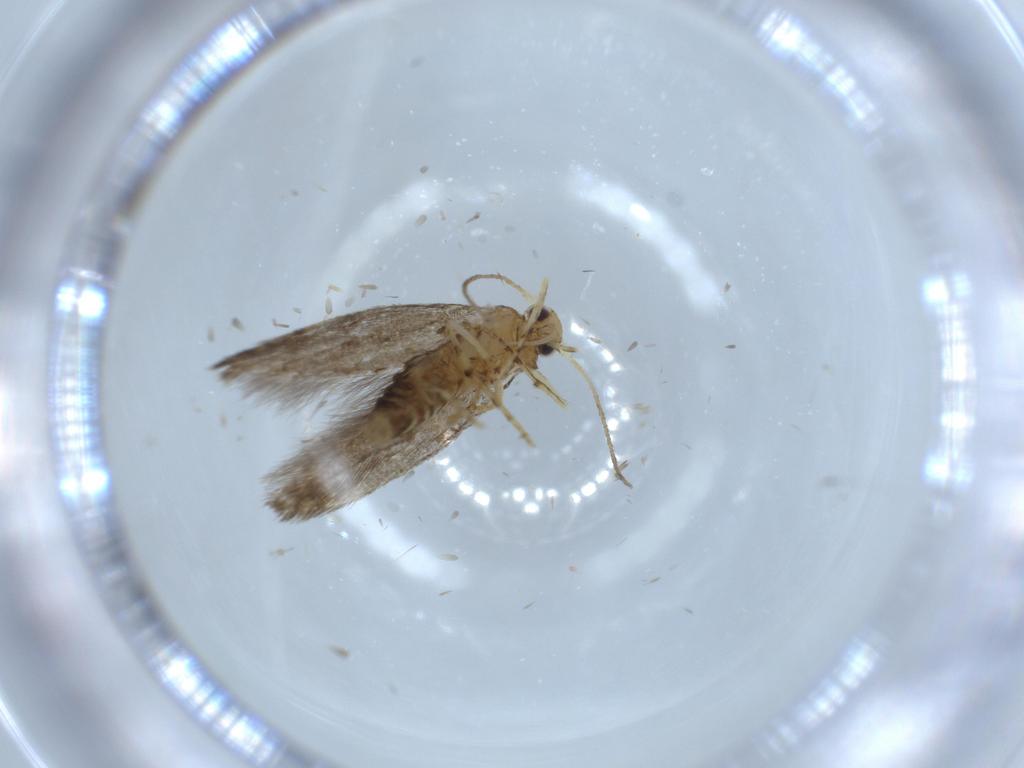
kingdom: Animalia
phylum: Arthropoda
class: Insecta
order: Lepidoptera
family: Argyresthiidae
